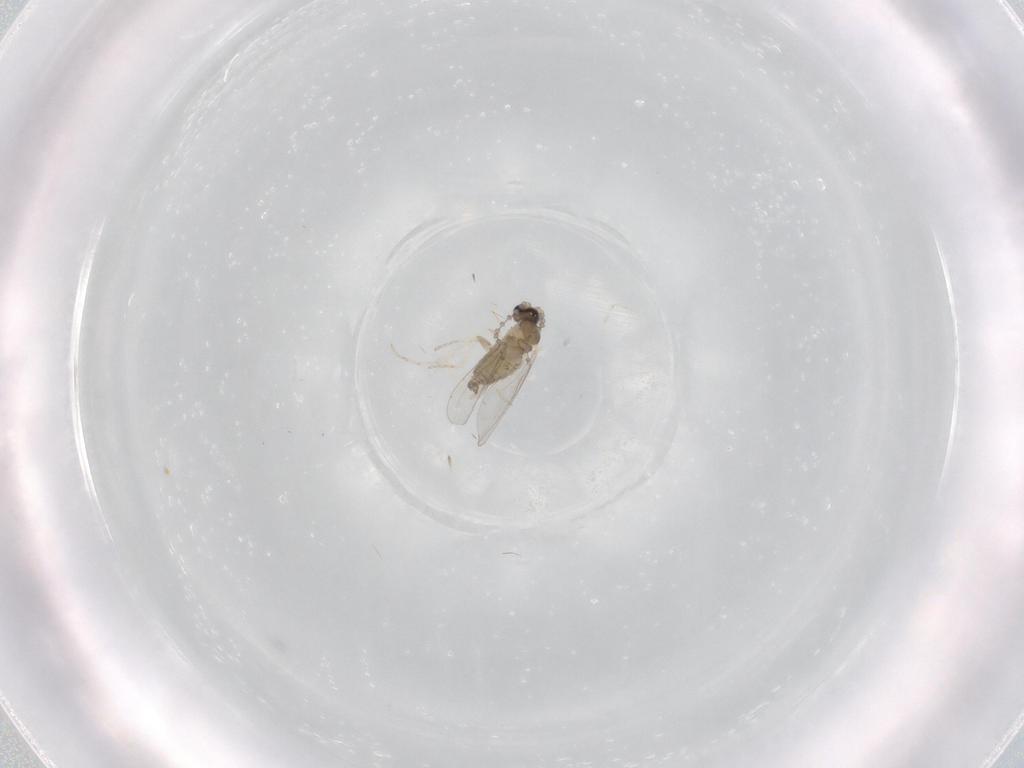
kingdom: Animalia
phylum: Arthropoda
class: Insecta
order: Diptera
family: Cecidomyiidae
